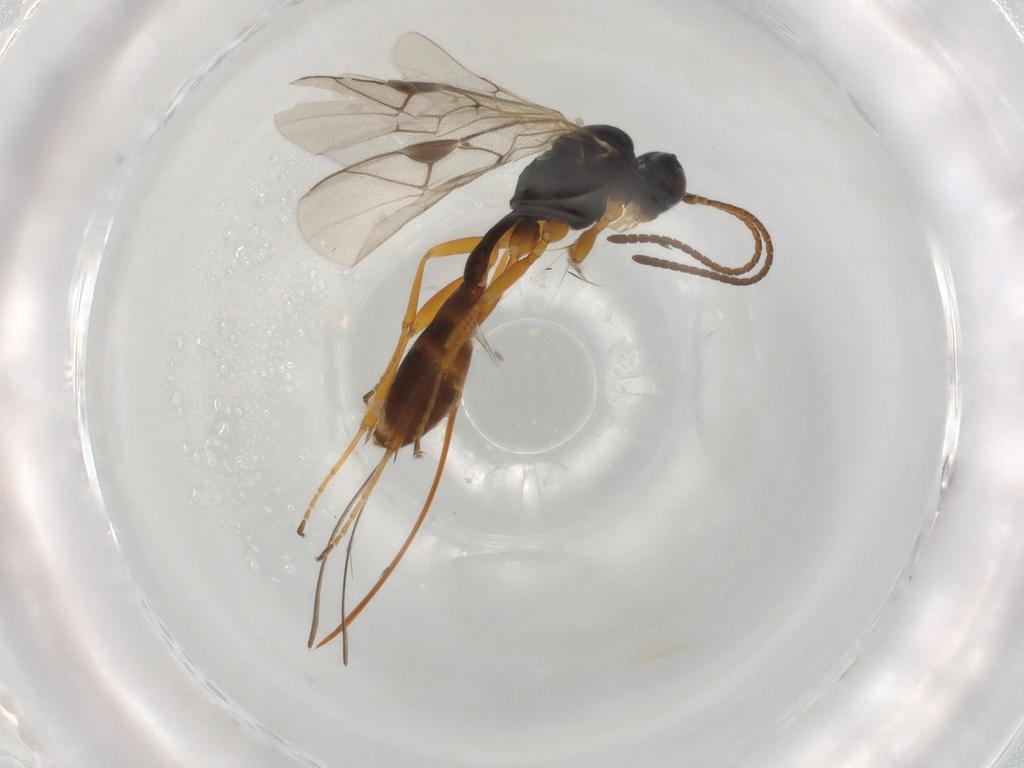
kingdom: Animalia
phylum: Arthropoda
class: Insecta
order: Hymenoptera
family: Ichneumonidae
